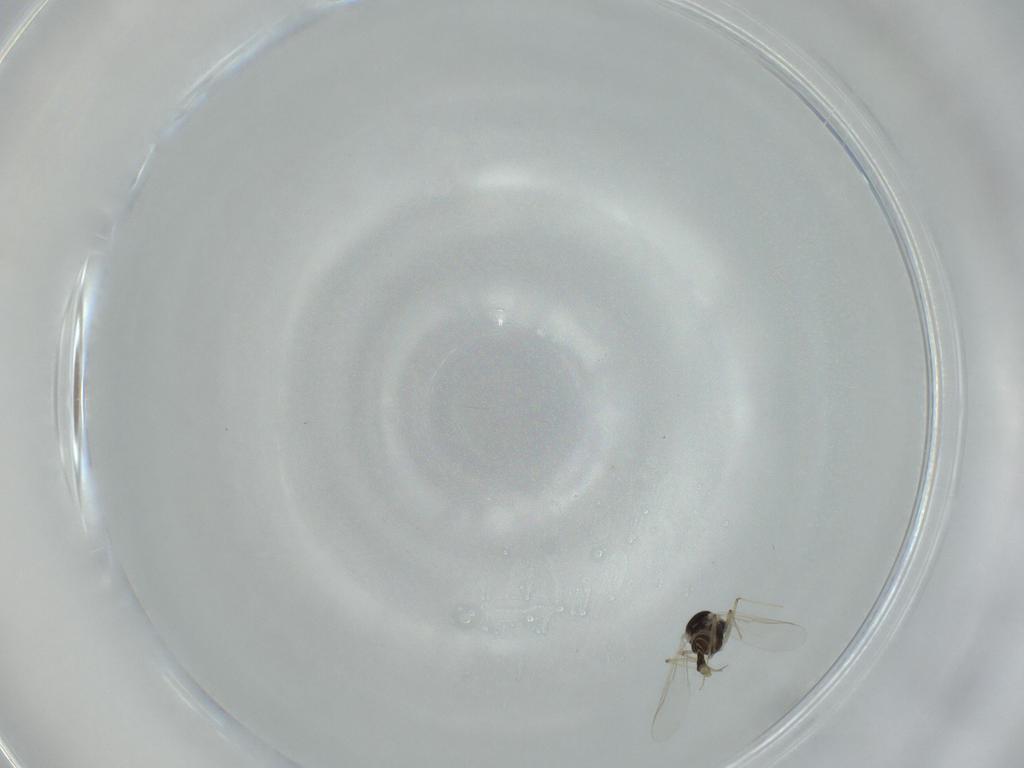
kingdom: Animalia
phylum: Arthropoda
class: Insecta
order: Diptera
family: Chironomidae
